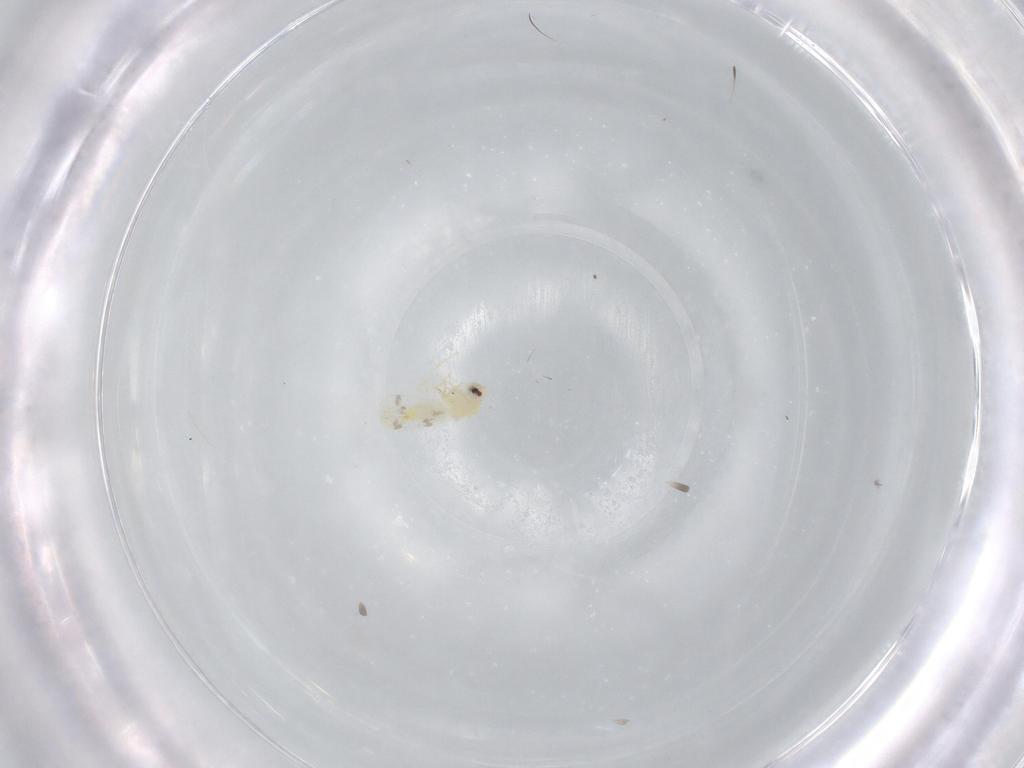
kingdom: Animalia
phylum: Arthropoda
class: Insecta
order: Hemiptera
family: Aleyrodidae
